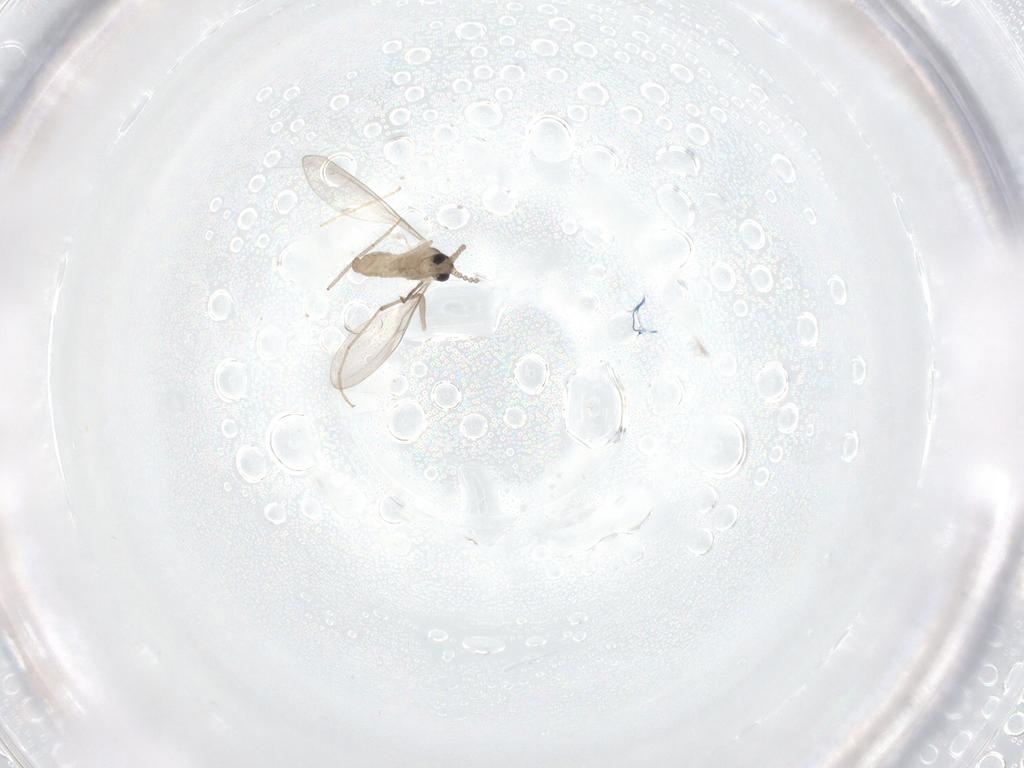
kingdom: Animalia
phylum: Arthropoda
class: Insecta
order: Diptera
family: Cecidomyiidae
